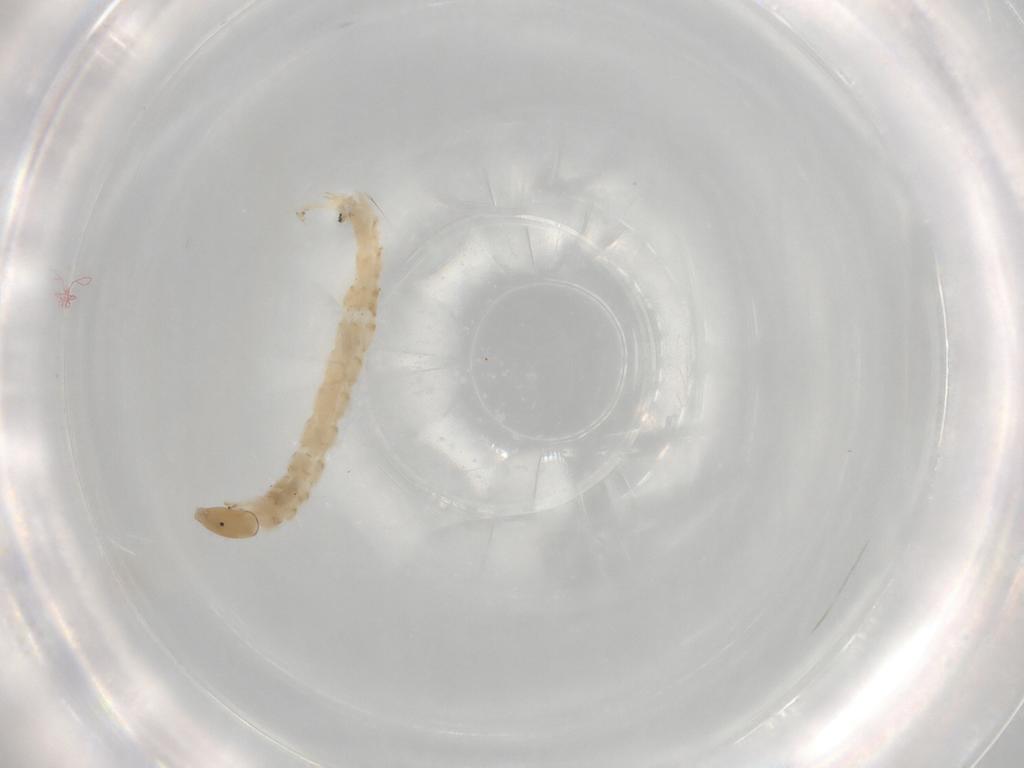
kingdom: Animalia
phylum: Arthropoda
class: Insecta
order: Diptera
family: Chironomidae
